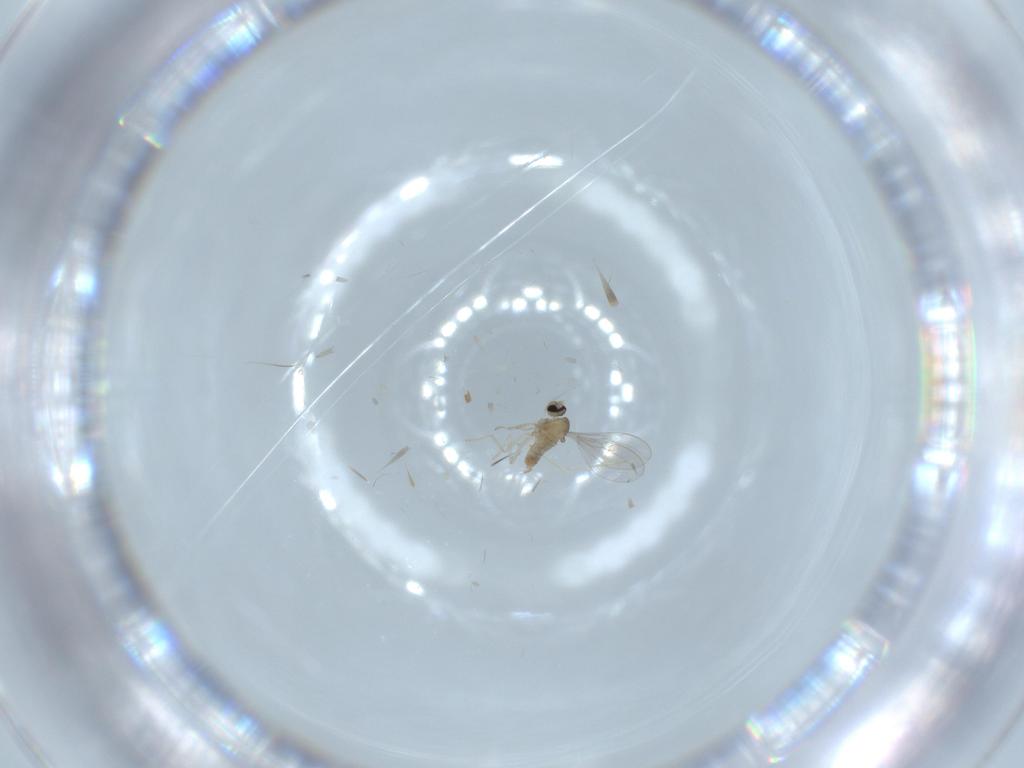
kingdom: Animalia
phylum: Arthropoda
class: Insecta
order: Diptera
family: Cecidomyiidae
